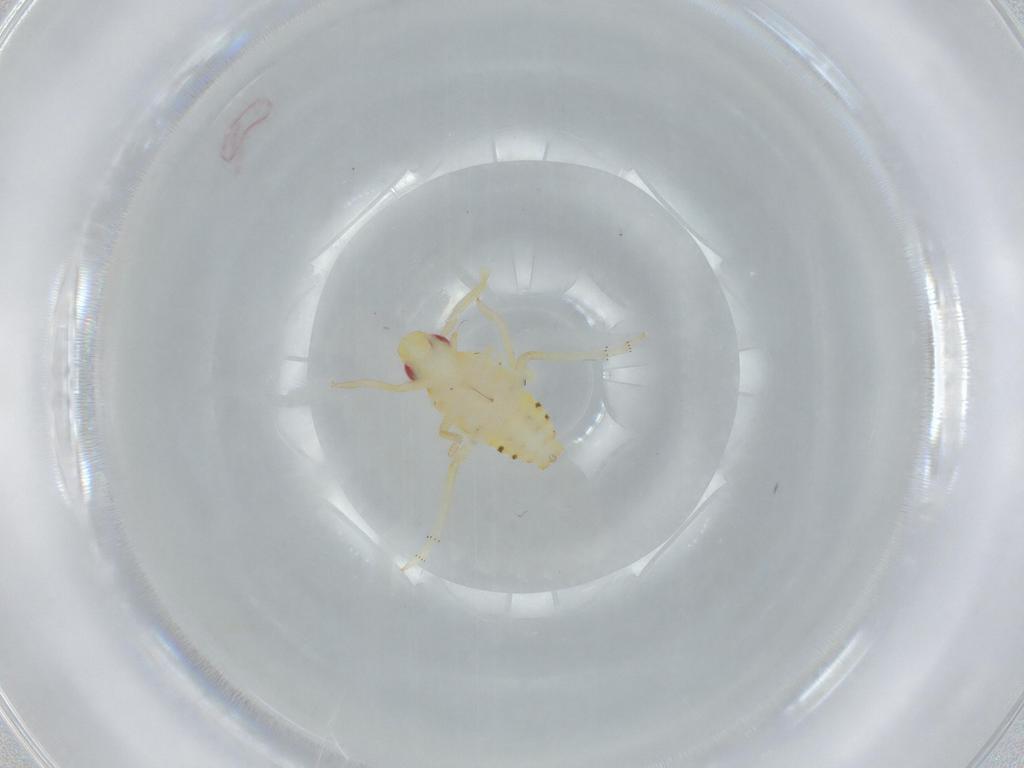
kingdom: Animalia
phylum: Arthropoda
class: Insecta
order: Hemiptera
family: Tropiduchidae
